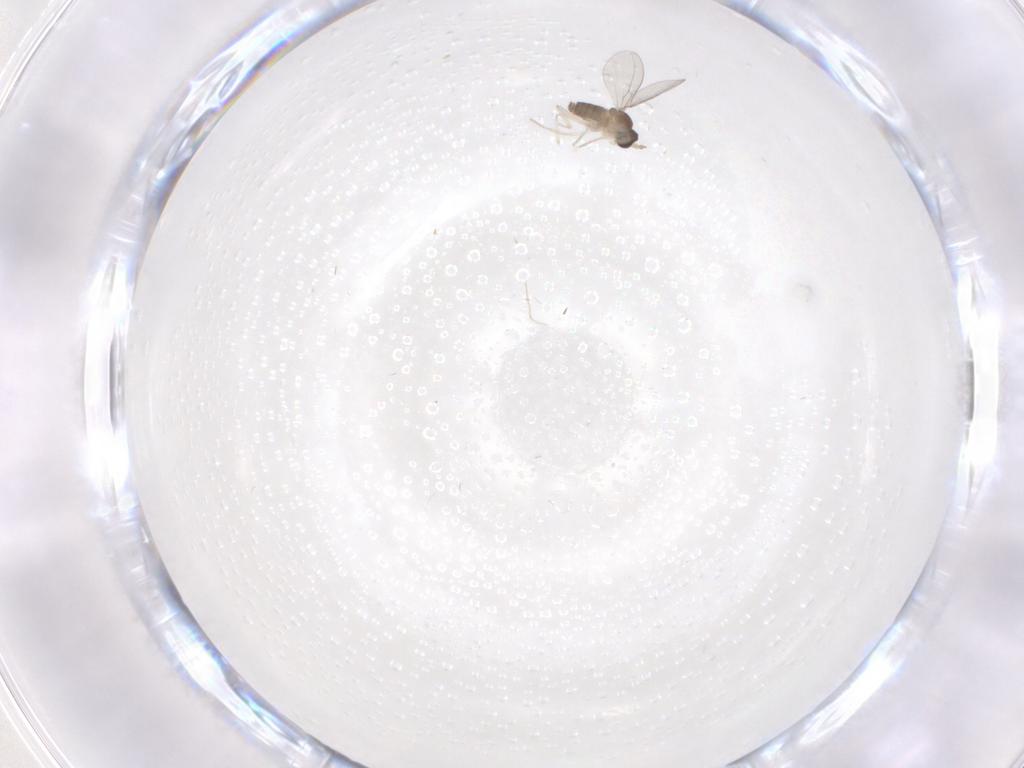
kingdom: Animalia
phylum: Arthropoda
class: Insecta
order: Diptera
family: Cecidomyiidae
